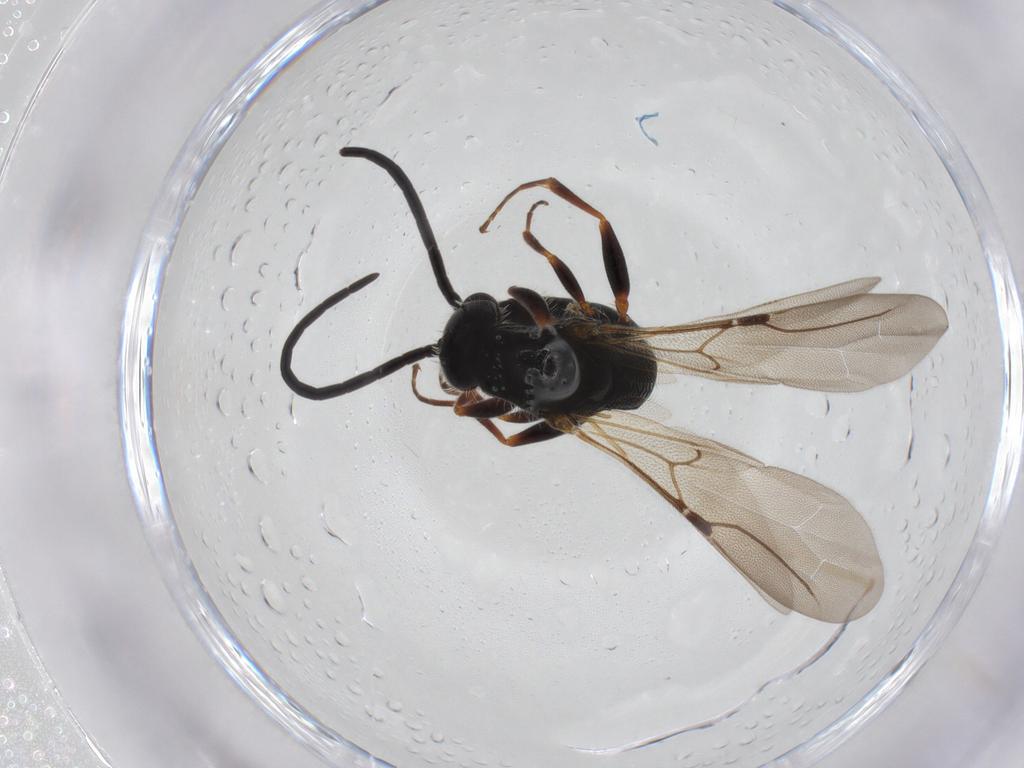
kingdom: Animalia
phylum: Arthropoda
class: Insecta
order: Hymenoptera
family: Bethylidae
